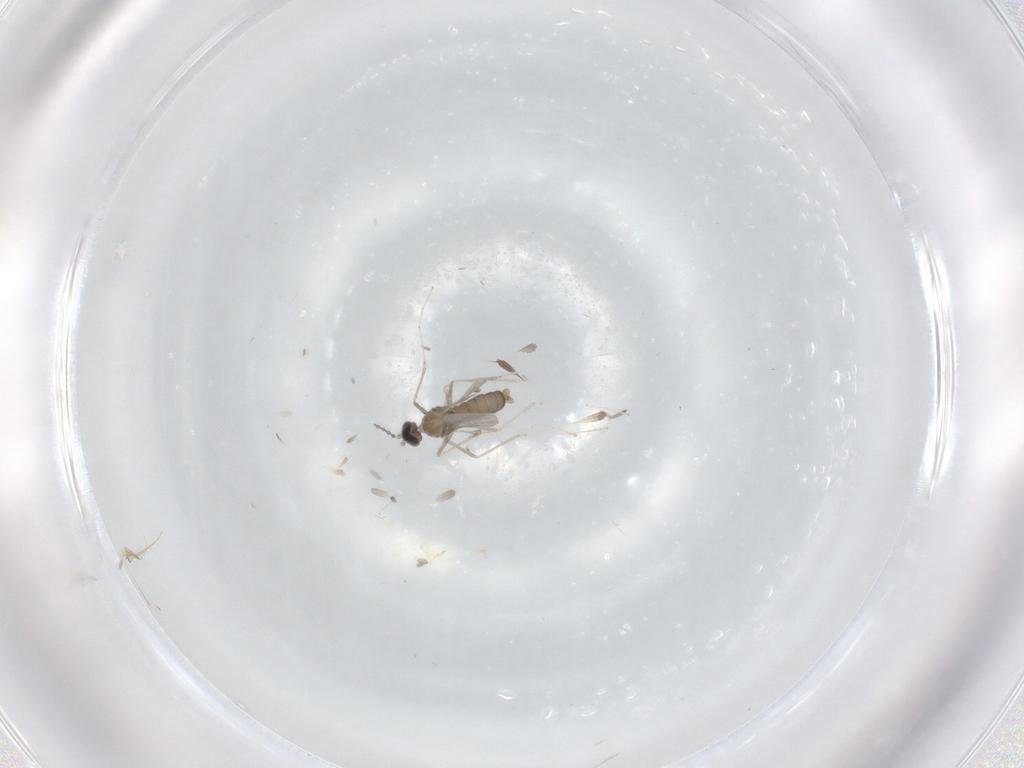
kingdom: Animalia
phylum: Arthropoda
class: Insecta
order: Diptera
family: Cecidomyiidae
